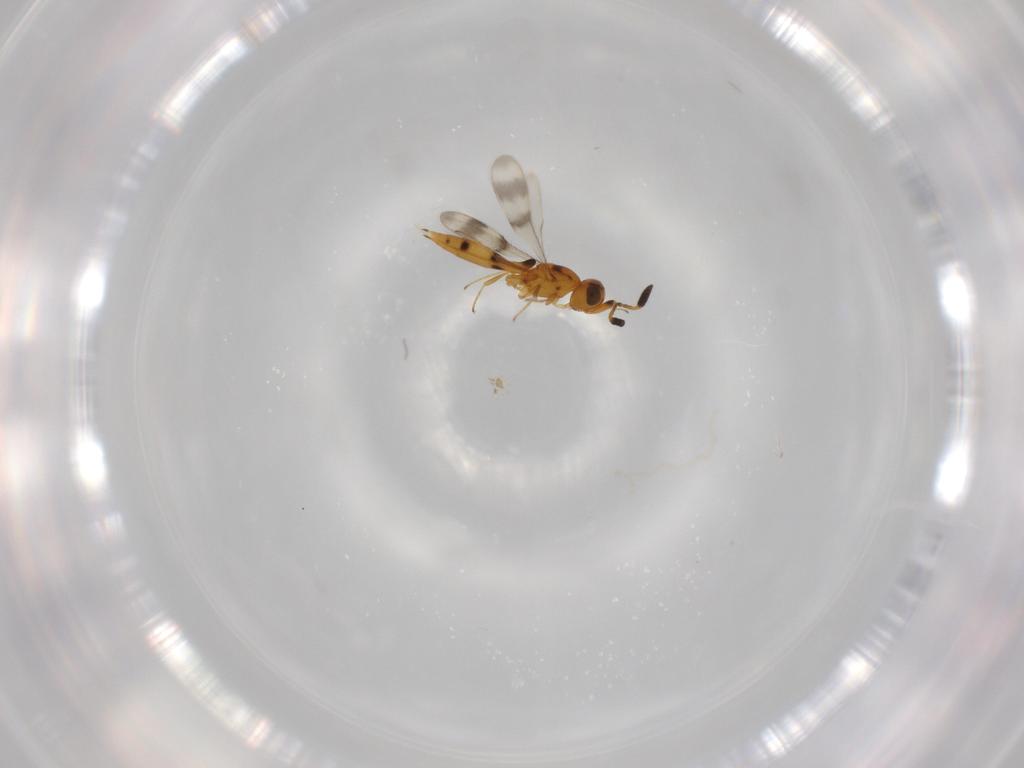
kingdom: Animalia
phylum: Arthropoda
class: Insecta
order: Hymenoptera
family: Scelionidae
